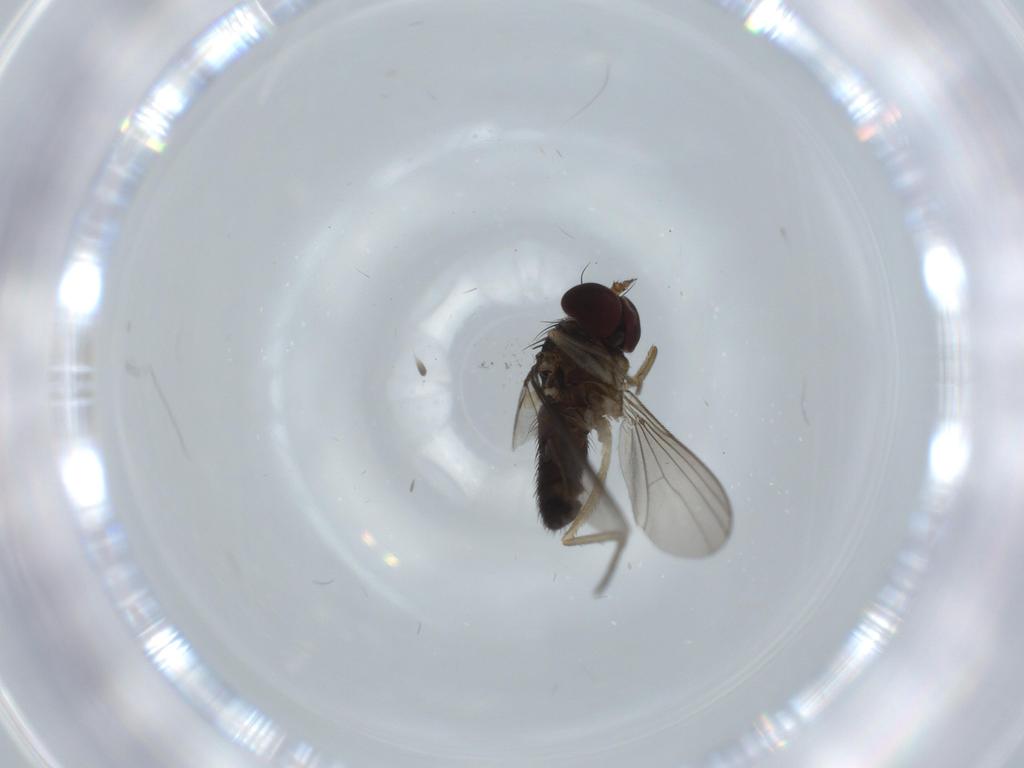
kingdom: Animalia
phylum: Arthropoda
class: Insecta
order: Diptera
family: Dolichopodidae
